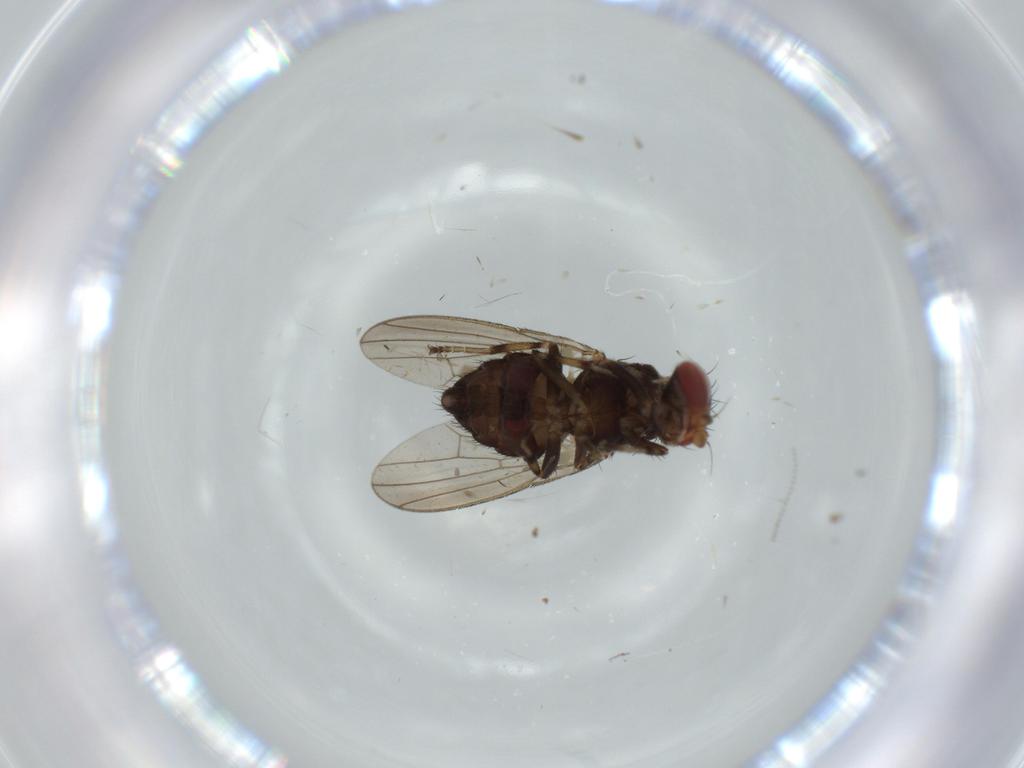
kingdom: Animalia
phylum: Arthropoda
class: Insecta
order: Diptera
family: Heleomyzidae
